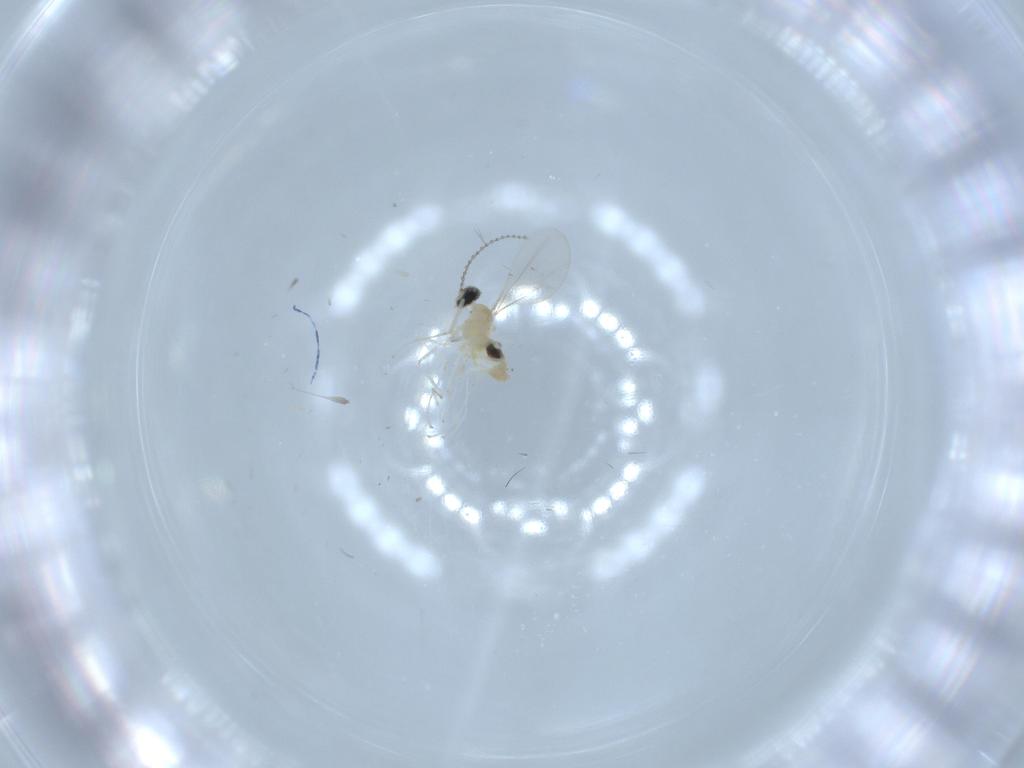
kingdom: Animalia
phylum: Arthropoda
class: Insecta
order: Diptera
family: Cecidomyiidae
